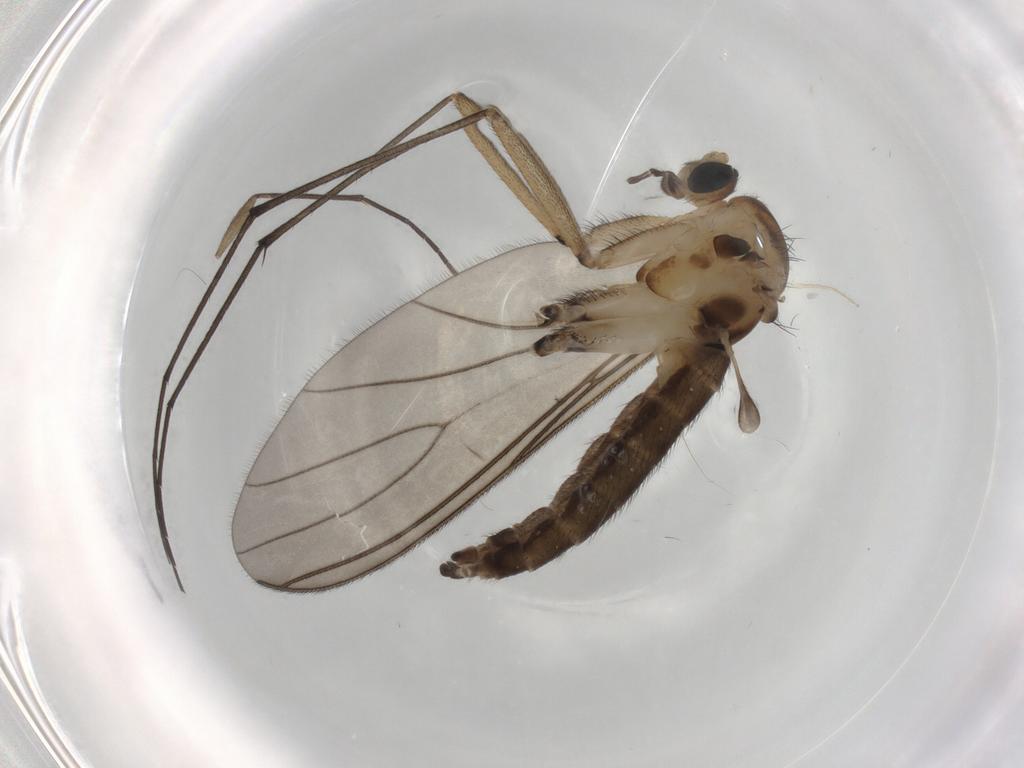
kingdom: Animalia
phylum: Arthropoda
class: Insecta
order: Diptera
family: Sciaridae
